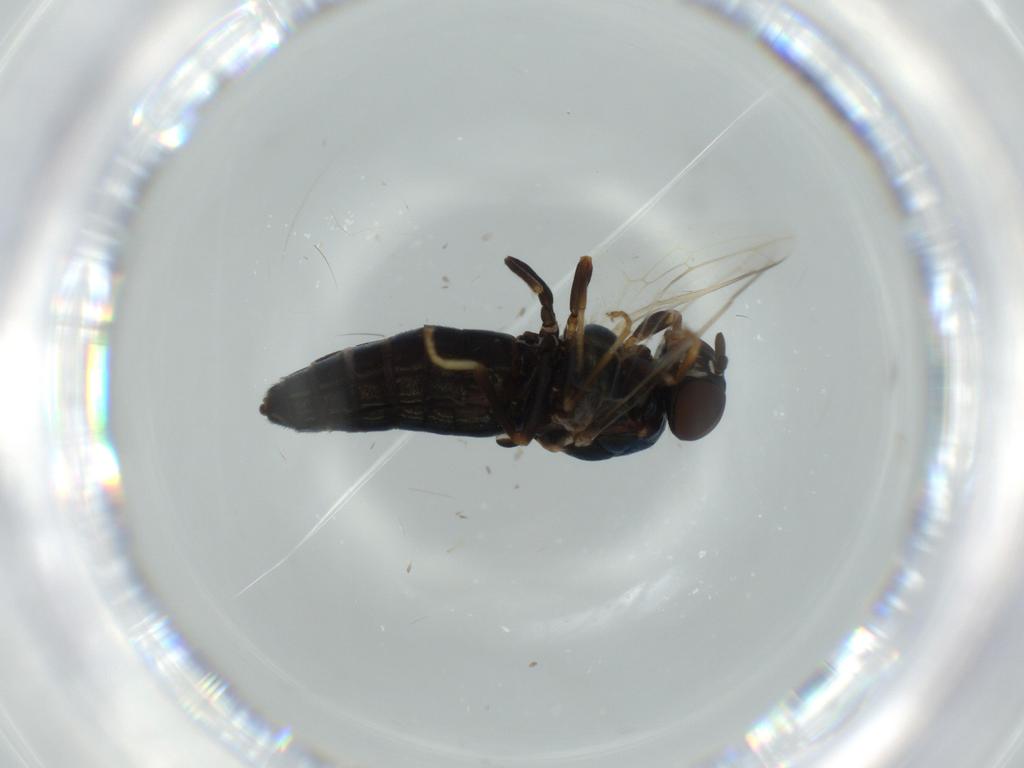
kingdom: Animalia
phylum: Arthropoda
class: Insecta
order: Diptera
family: Scenopinidae
